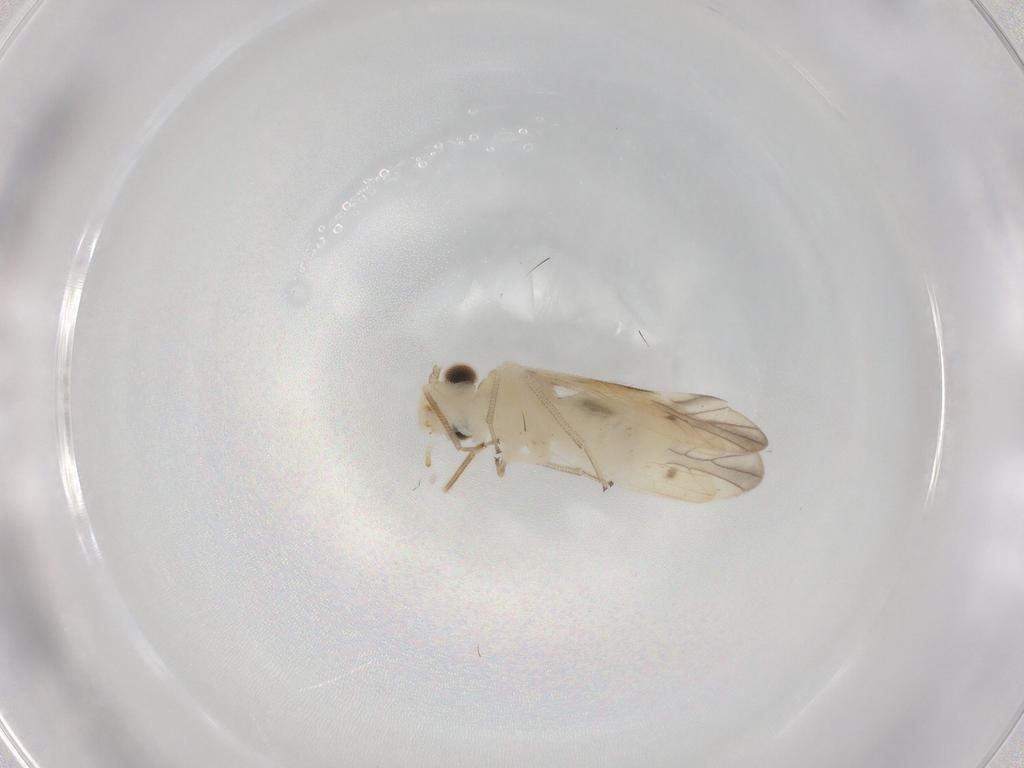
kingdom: Animalia
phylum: Arthropoda
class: Insecta
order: Psocodea
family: Caeciliusidae
